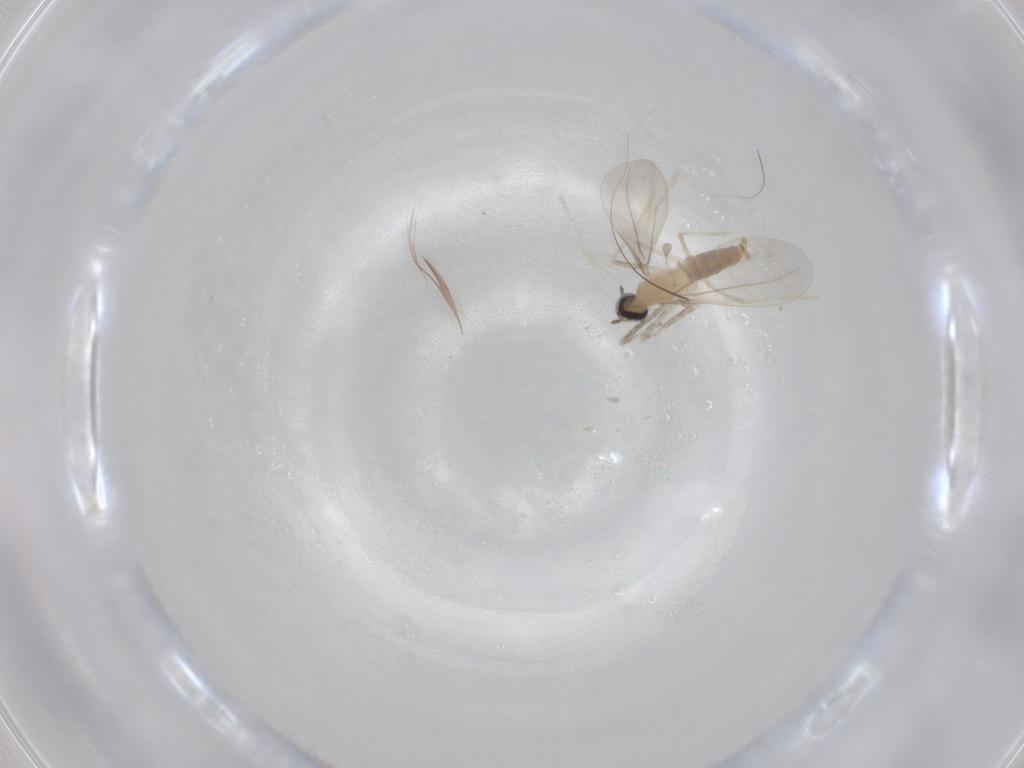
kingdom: Animalia
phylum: Arthropoda
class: Insecta
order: Diptera
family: Cecidomyiidae
